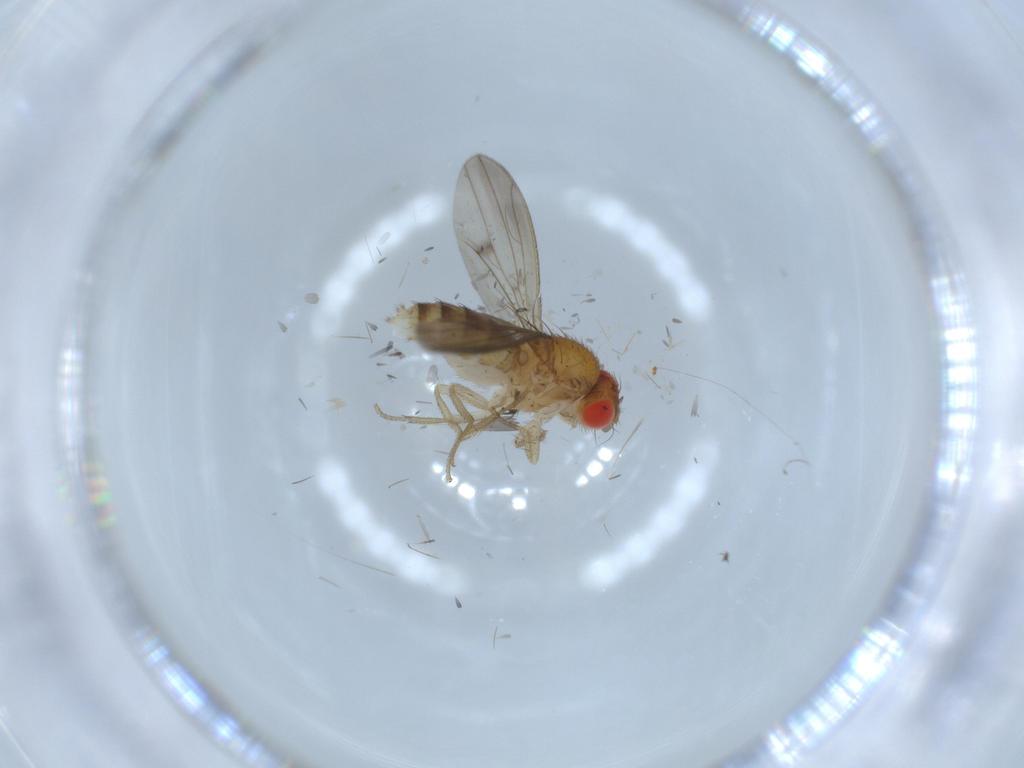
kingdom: Animalia
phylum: Arthropoda
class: Insecta
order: Diptera
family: Drosophilidae
